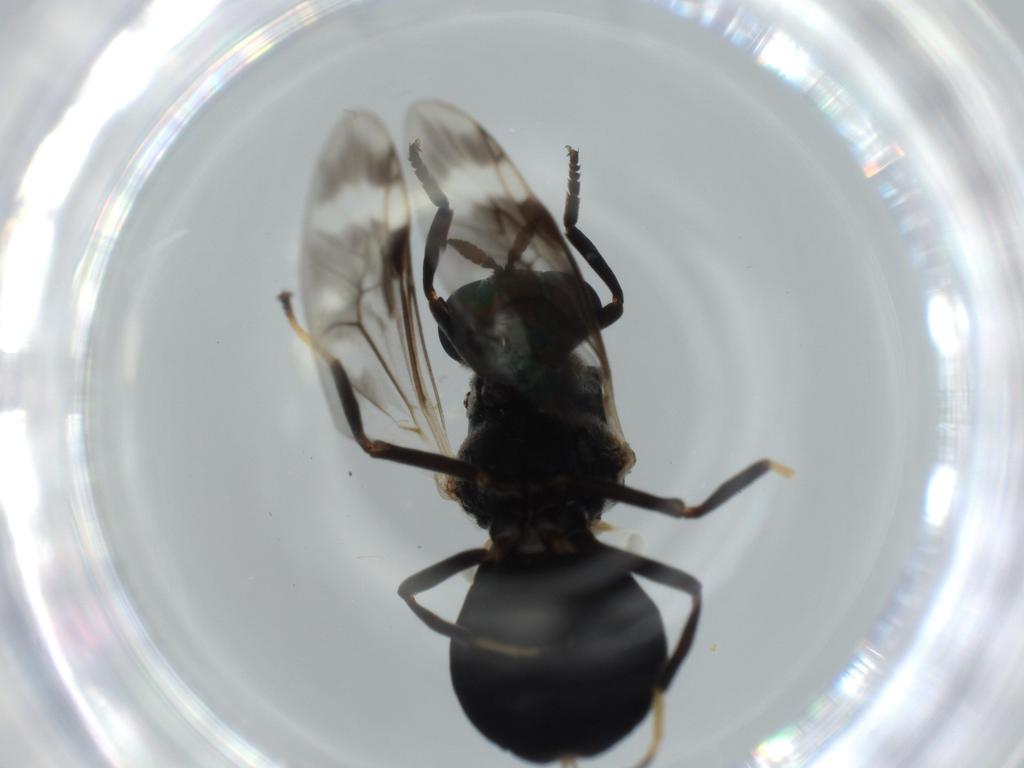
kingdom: Animalia
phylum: Arthropoda
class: Insecta
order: Diptera
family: Stratiomyidae
